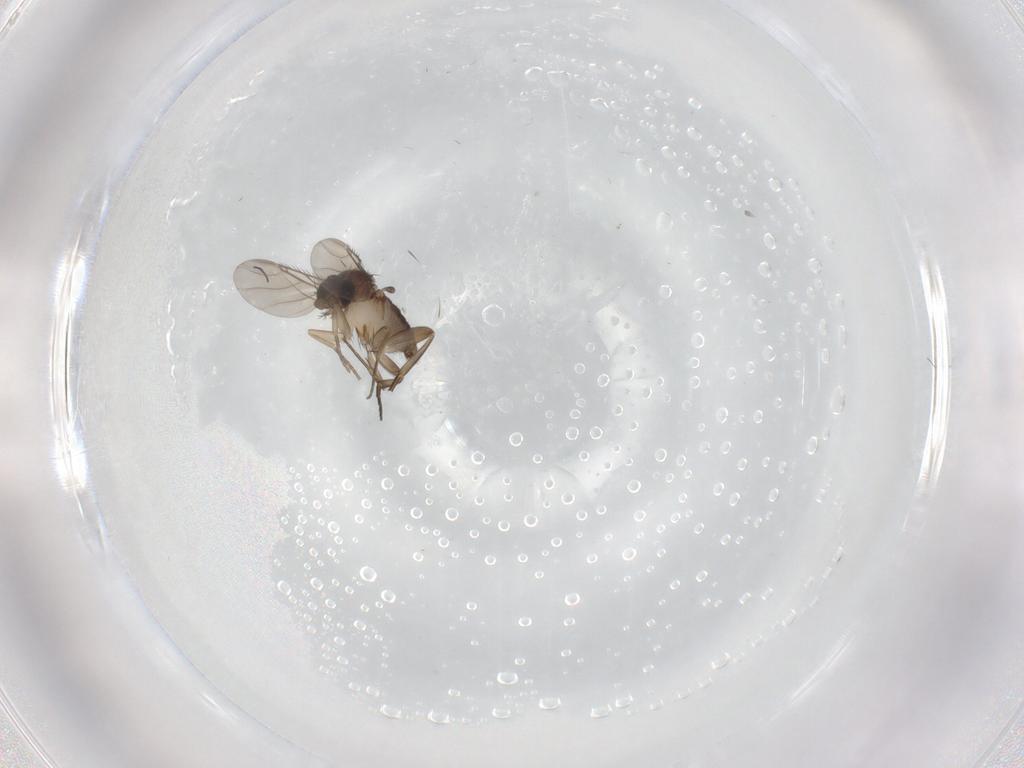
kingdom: Animalia
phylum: Arthropoda
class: Insecta
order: Diptera
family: Phoridae
